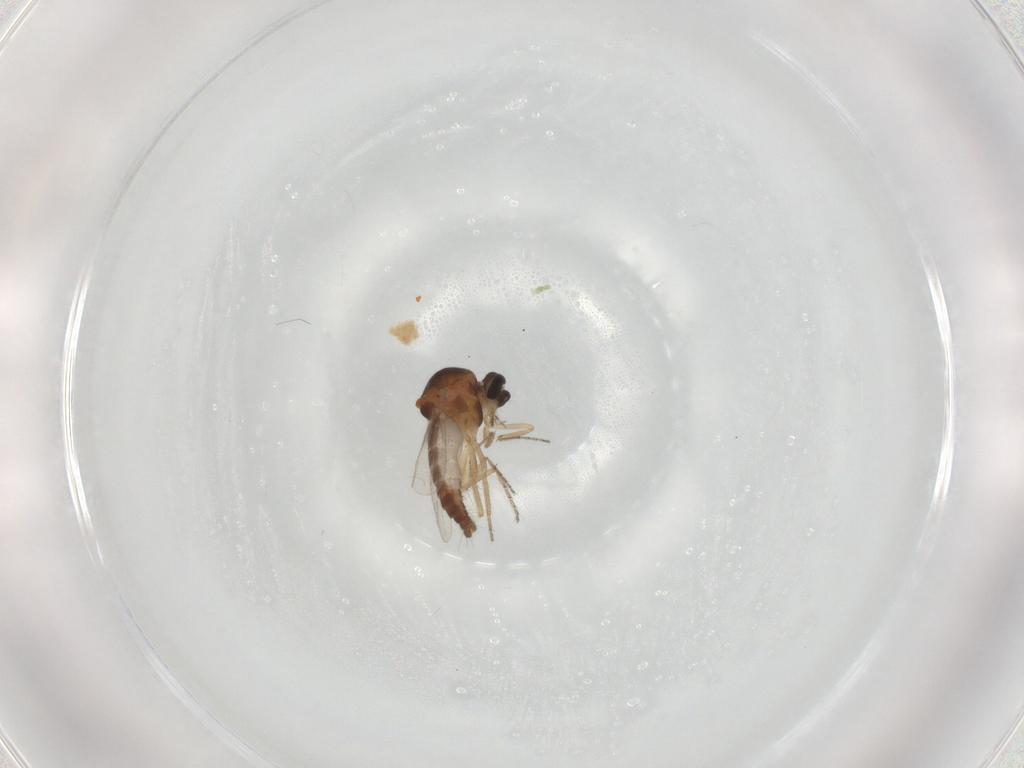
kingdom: Animalia
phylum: Arthropoda
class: Insecta
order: Diptera
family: Ceratopogonidae
